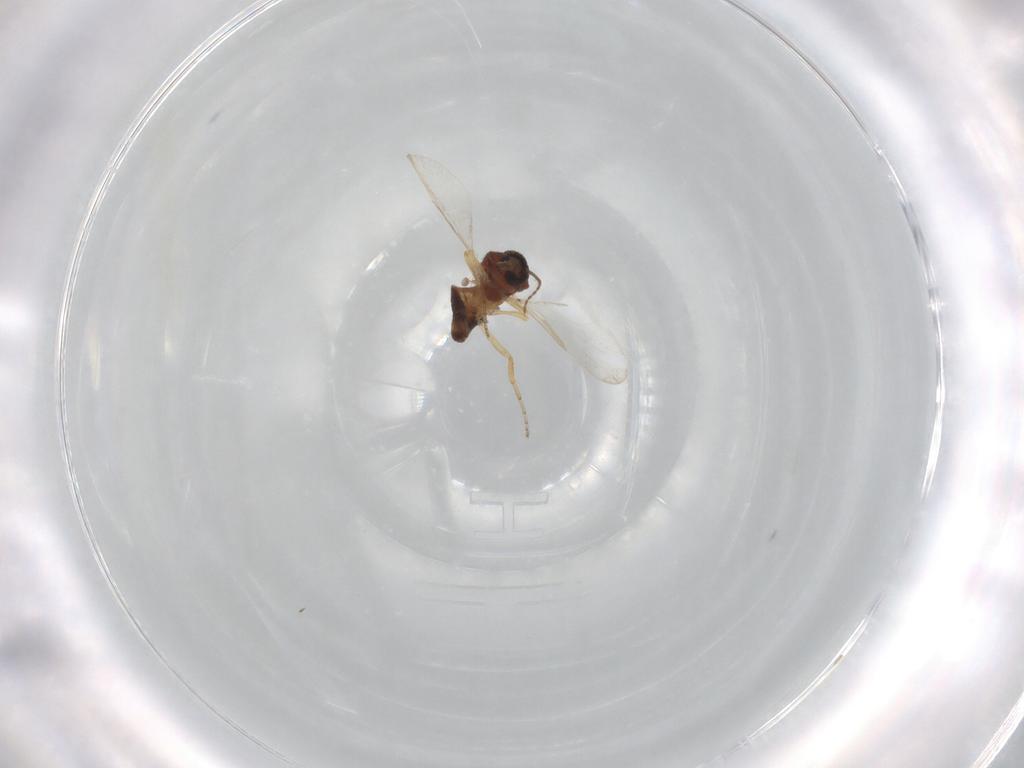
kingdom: Animalia
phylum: Arthropoda
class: Insecta
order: Diptera
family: Ceratopogonidae
